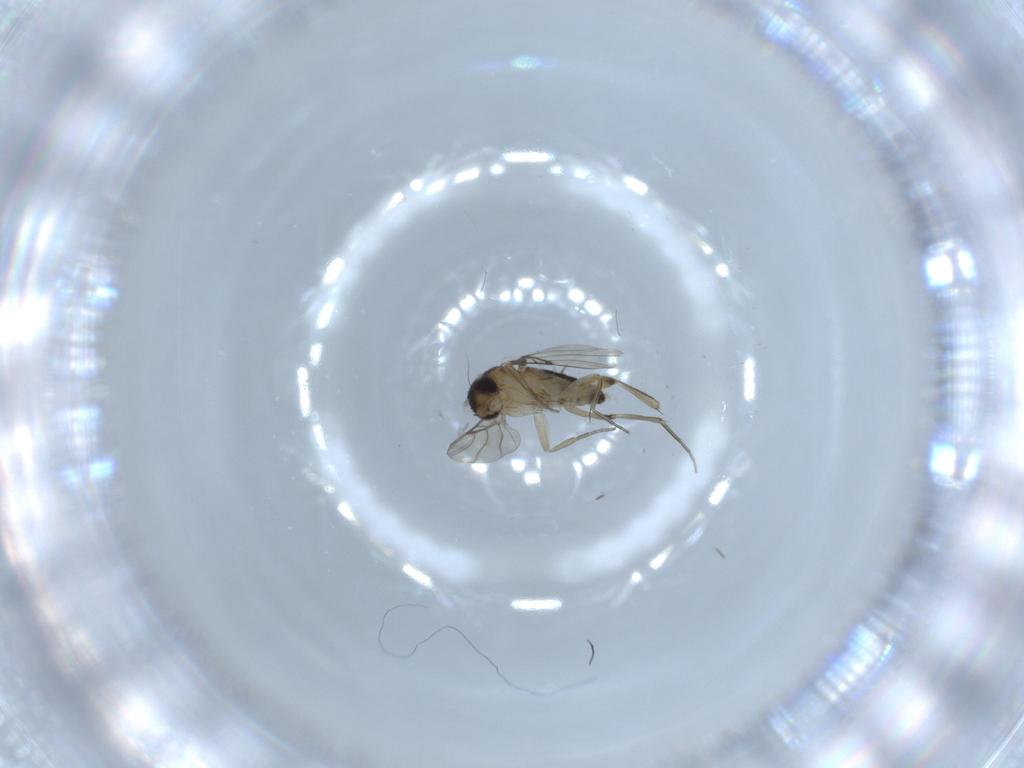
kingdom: Animalia
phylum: Arthropoda
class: Insecta
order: Diptera
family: Phoridae
